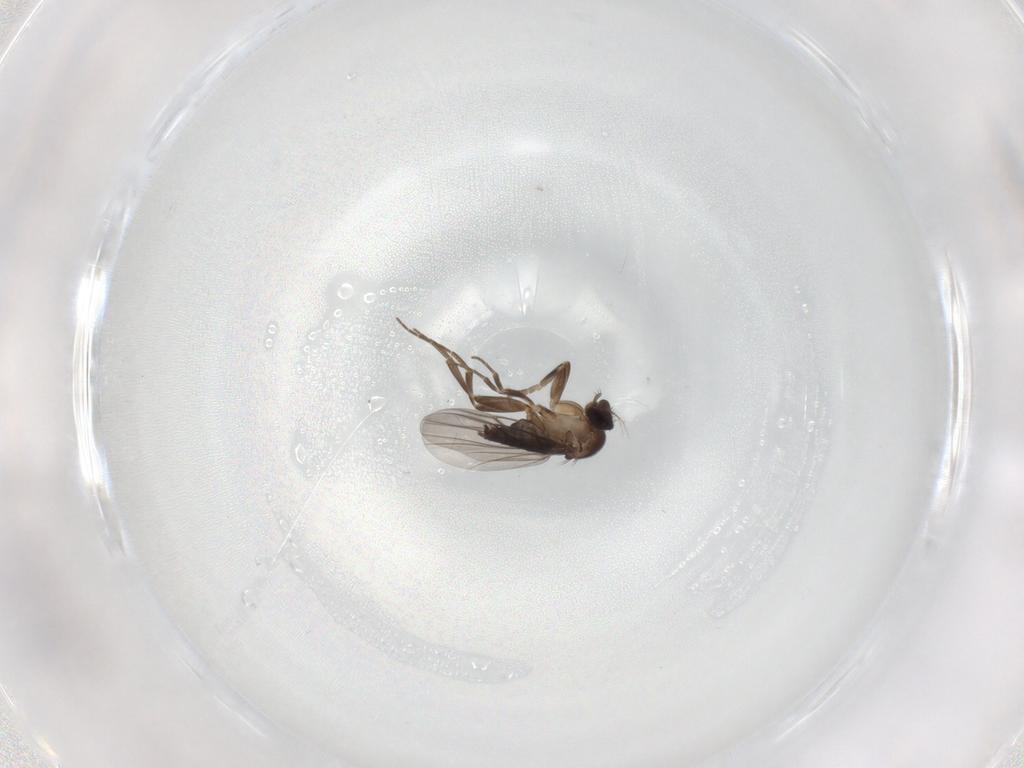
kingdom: Animalia
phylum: Arthropoda
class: Insecta
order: Diptera
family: Phoridae
